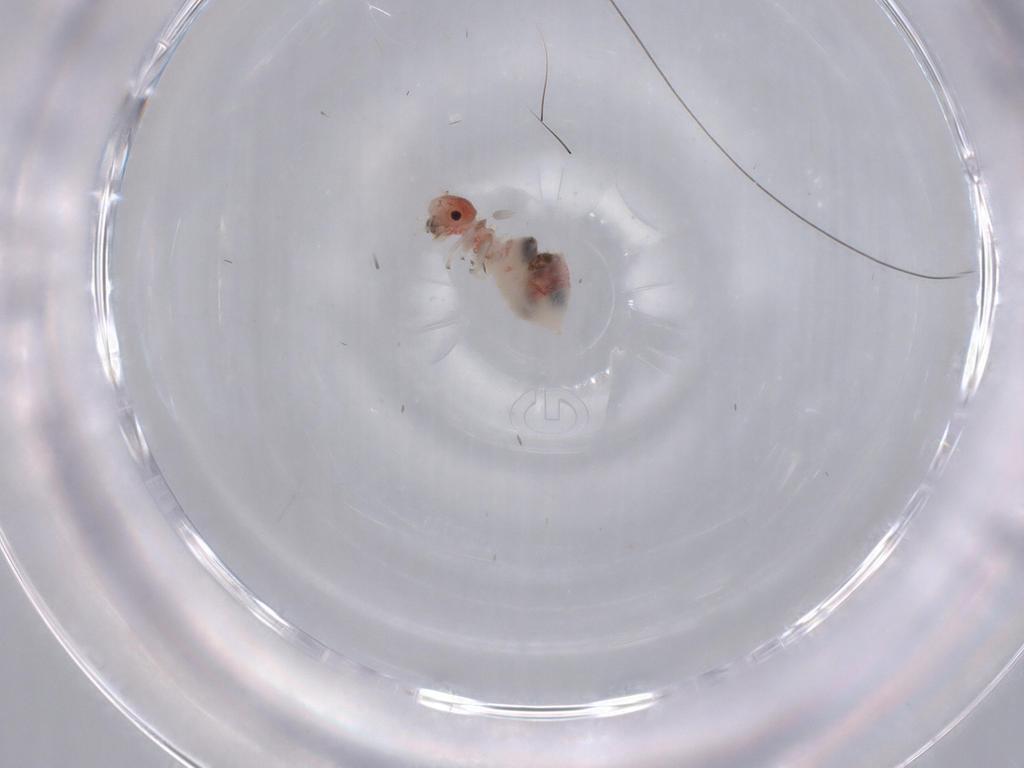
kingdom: Animalia
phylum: Arthropoda
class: Insecta
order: Psocodea
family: Caeciliusidae
